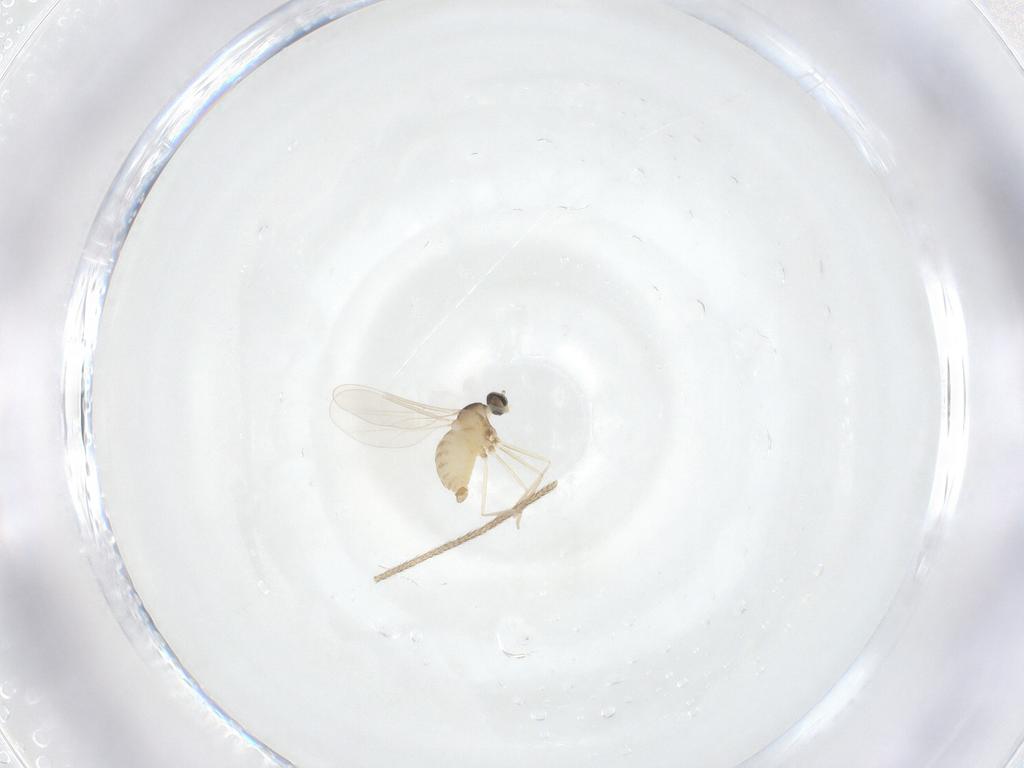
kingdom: Animalia
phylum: Arthropoda
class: Insecta
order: Diptera
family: Cecidomyiidae
